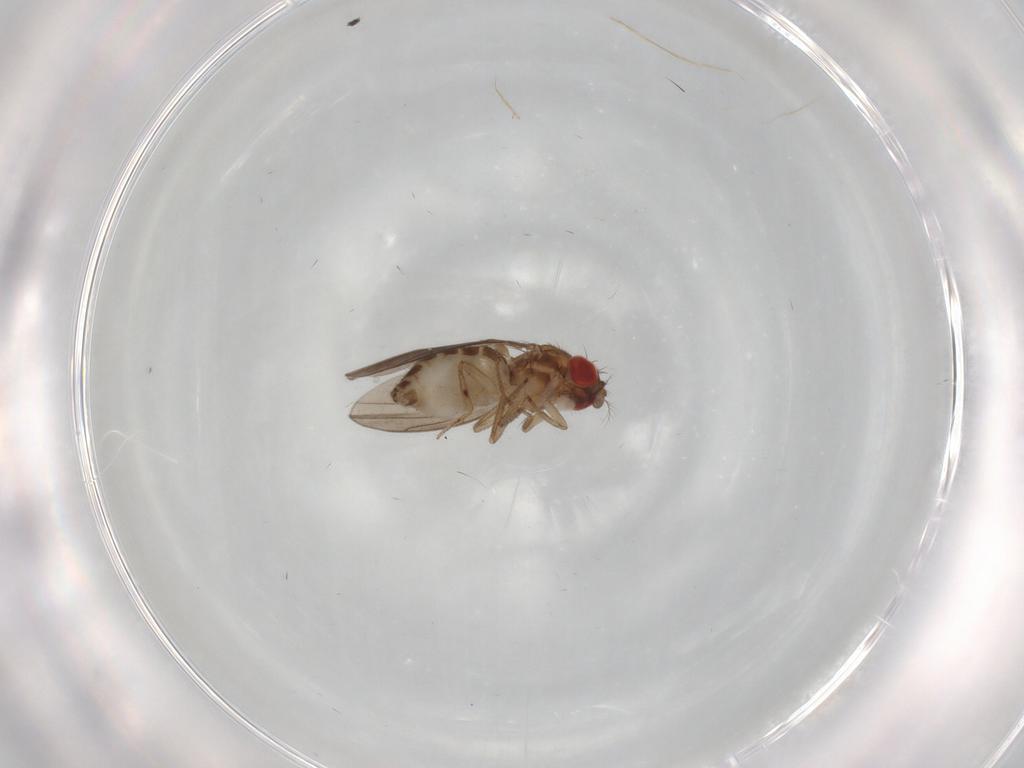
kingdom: Animalia
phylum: Arthropoda
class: Insecta
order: Diptera
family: Drosophilidae
